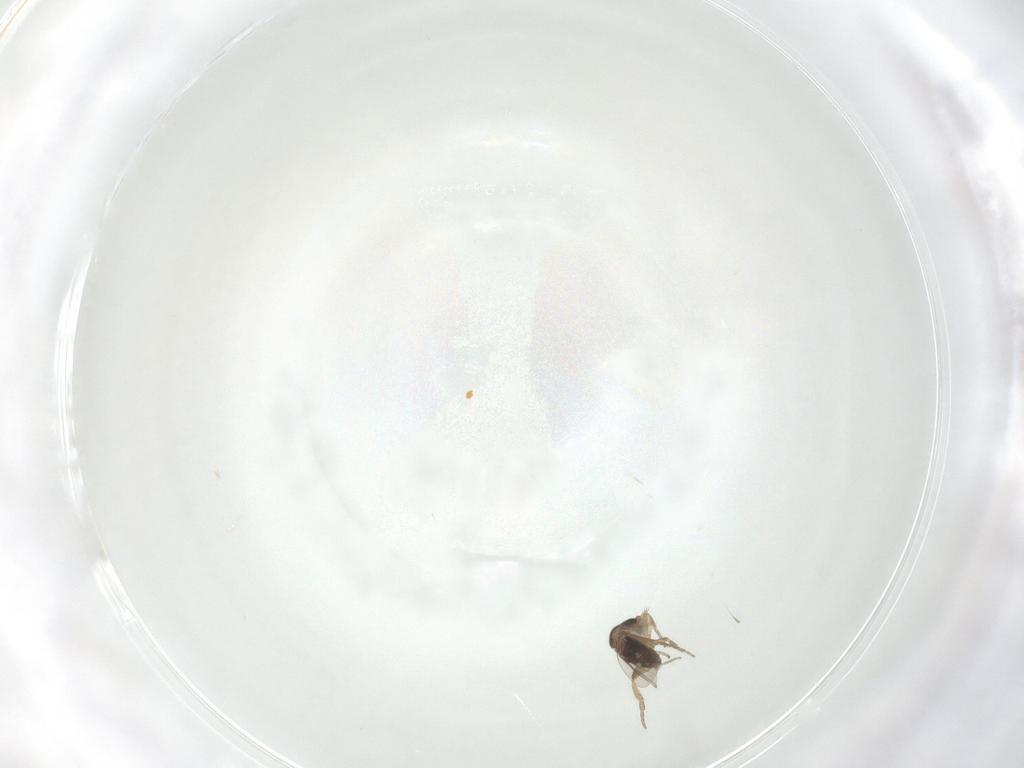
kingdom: Animalia
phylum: Arthropoda
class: Insecta
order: Diptera
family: Phoridae
